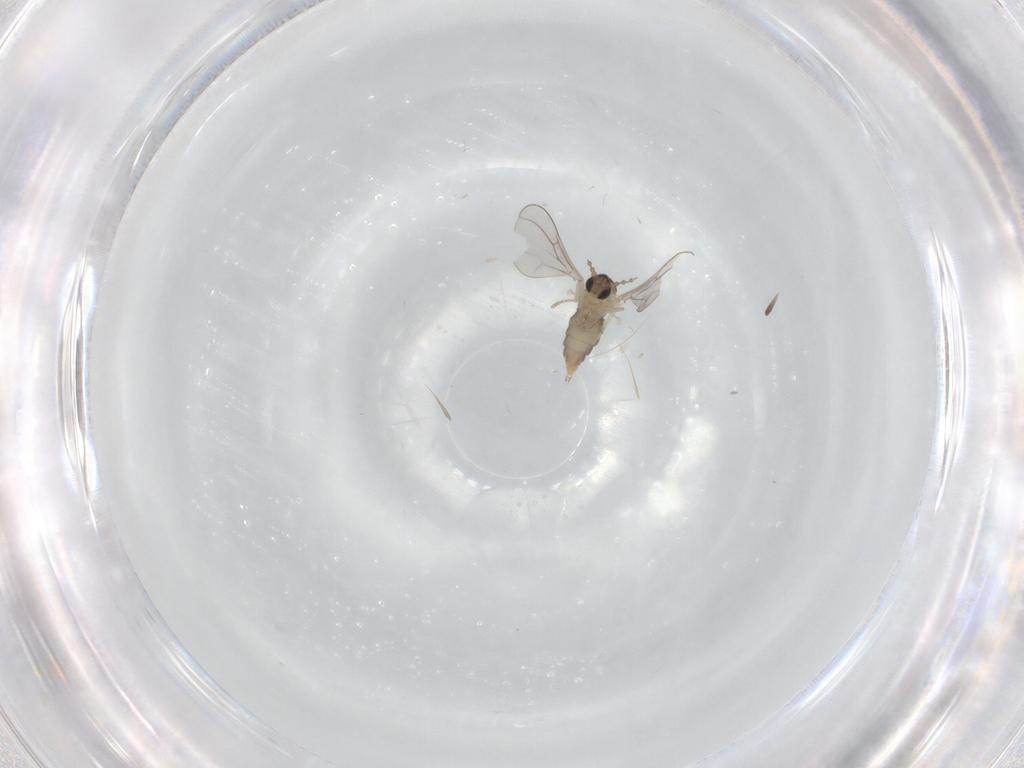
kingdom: Animalia
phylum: Arthropoda
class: Insecta
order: Diptera
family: Cecidomyiidae
